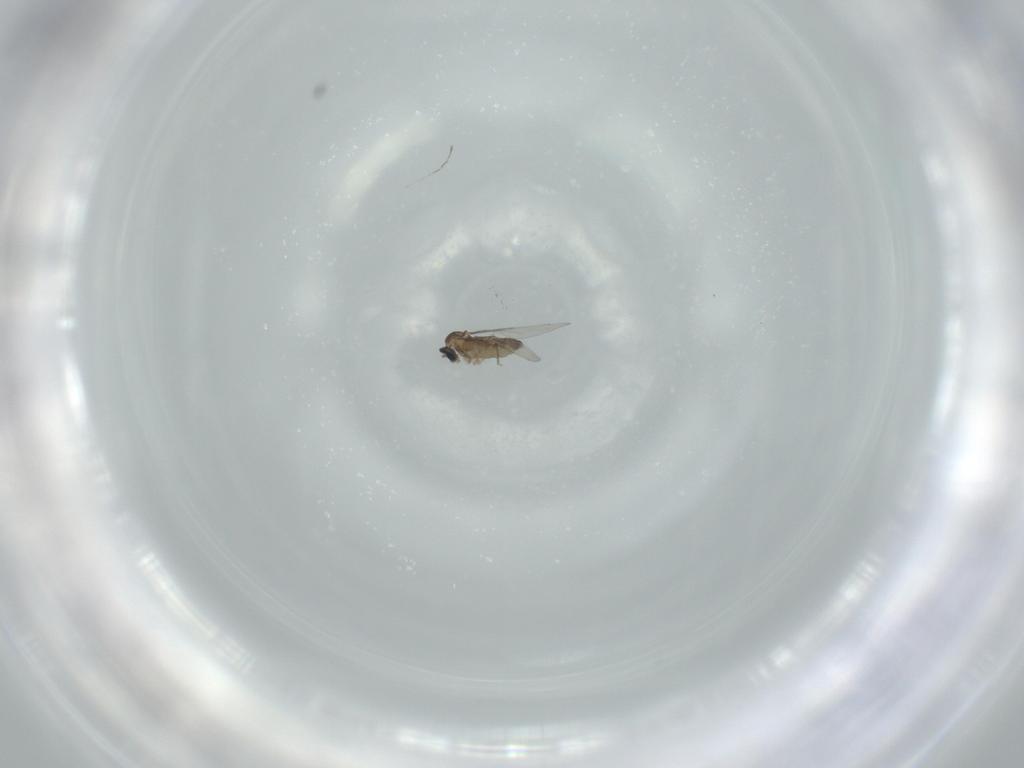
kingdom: Animalia
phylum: Arthropoda
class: Insecta
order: Diptera
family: Cecidomyiidae
